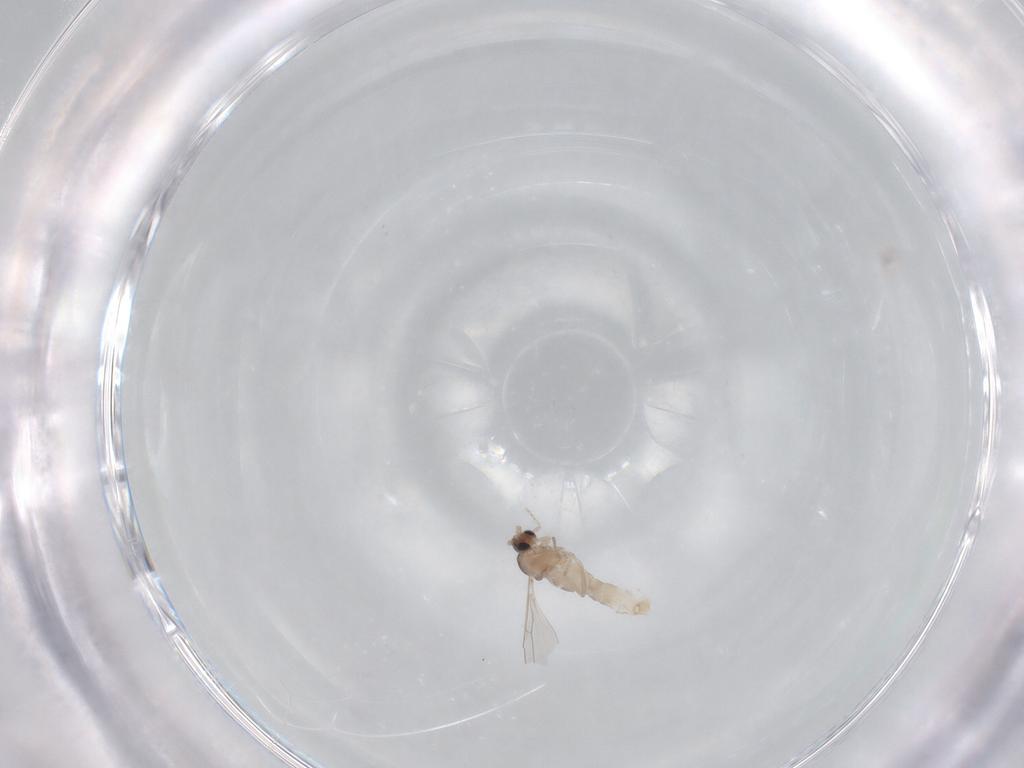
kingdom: Animalia
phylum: Arthropoda
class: Insecta
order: Diptera
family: Cecidomyiidae
